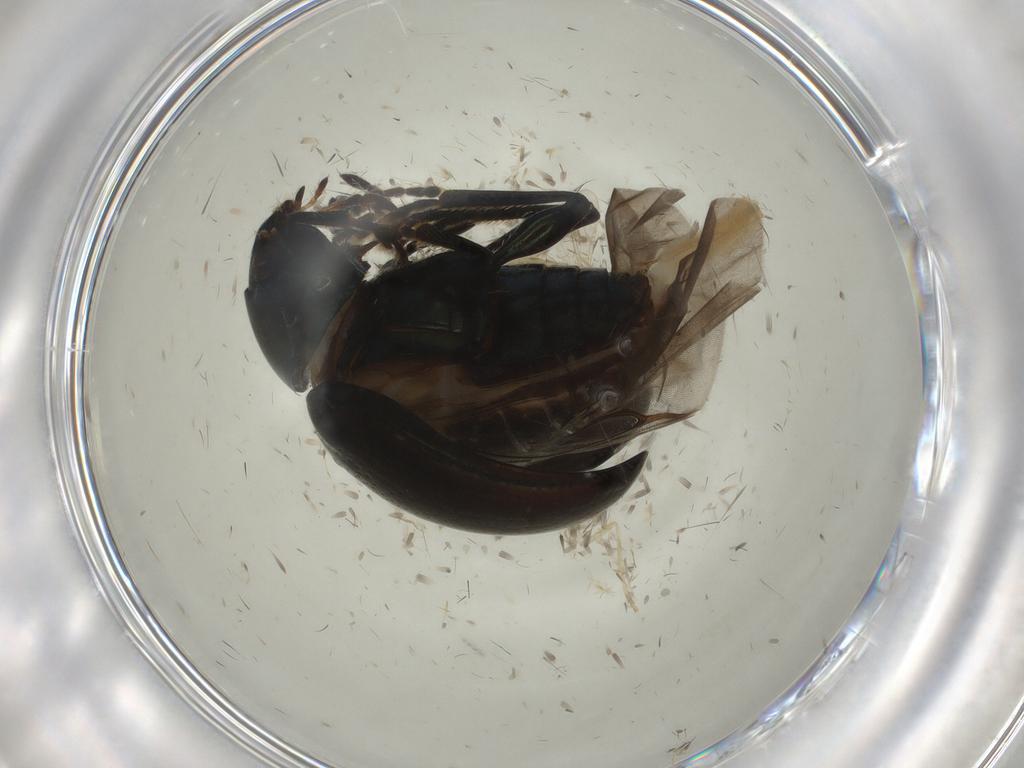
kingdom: Animalia
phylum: Arthropoda
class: Insecta
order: Coleoptera
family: Chrysomelidae
